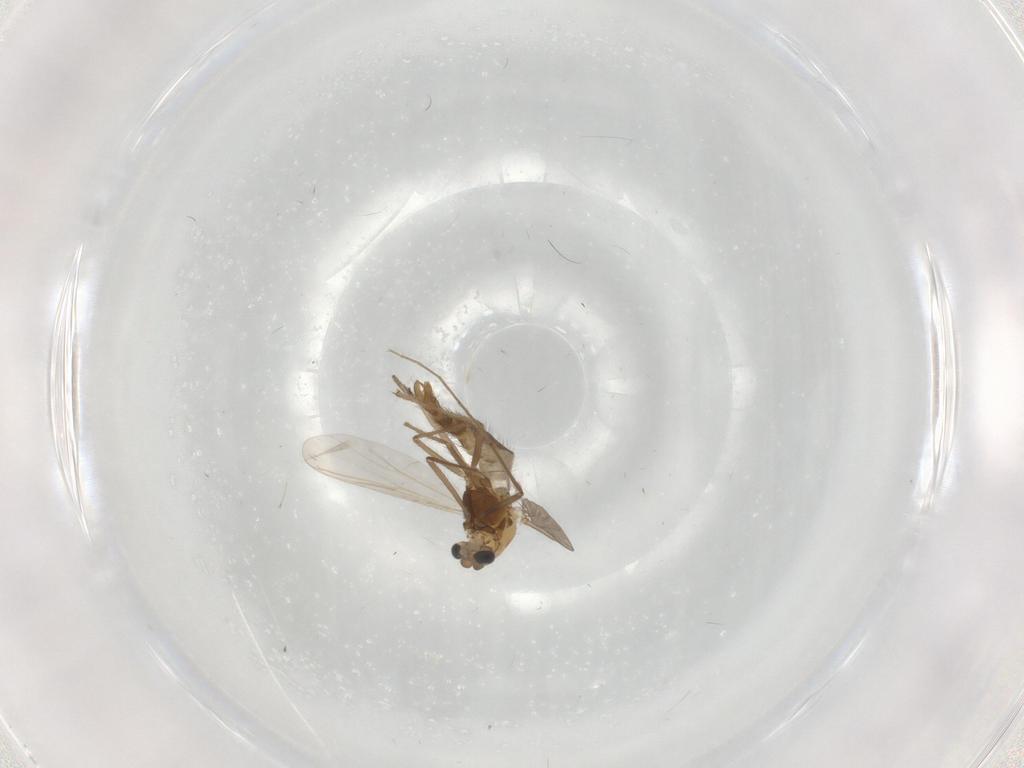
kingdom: Animalia
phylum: Arthropoda
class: Insecta
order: Diptera
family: Chironomidae
